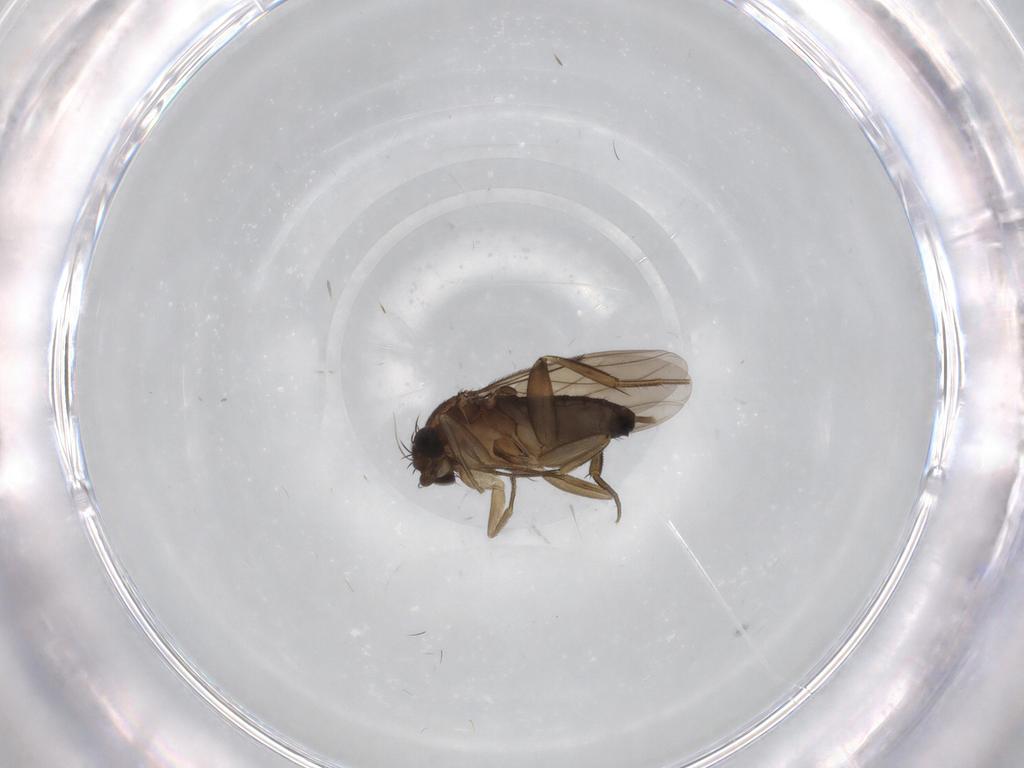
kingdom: Animalia
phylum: Arthropoda
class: Insecta
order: Diptera
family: Phoridae
